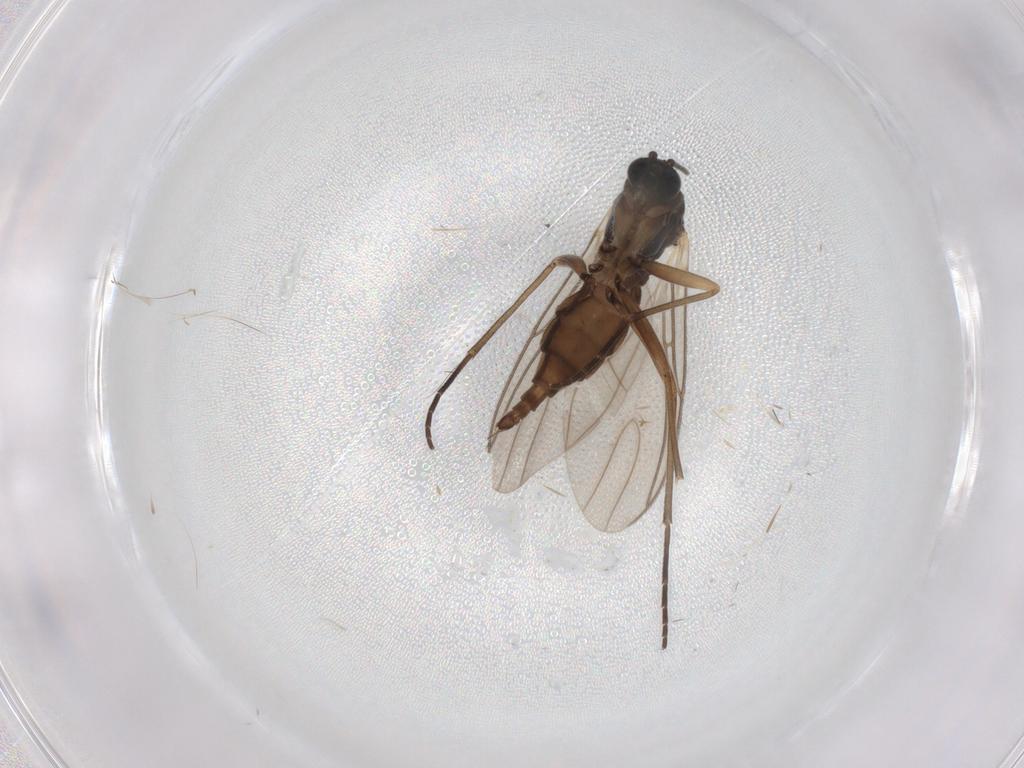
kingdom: Animalia
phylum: Arthropoda
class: Insecta
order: Diptera
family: Sciaridae
